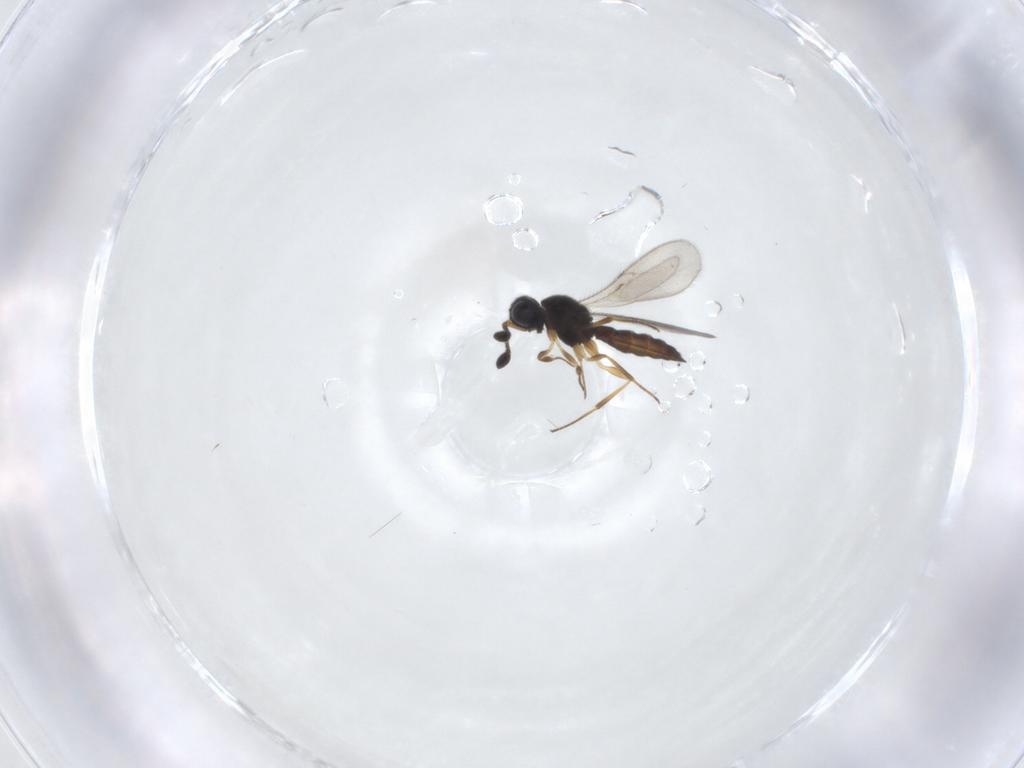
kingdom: Animalia
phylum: Arthropoda
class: Insecta
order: Hymenoptera
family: Scelionidae
